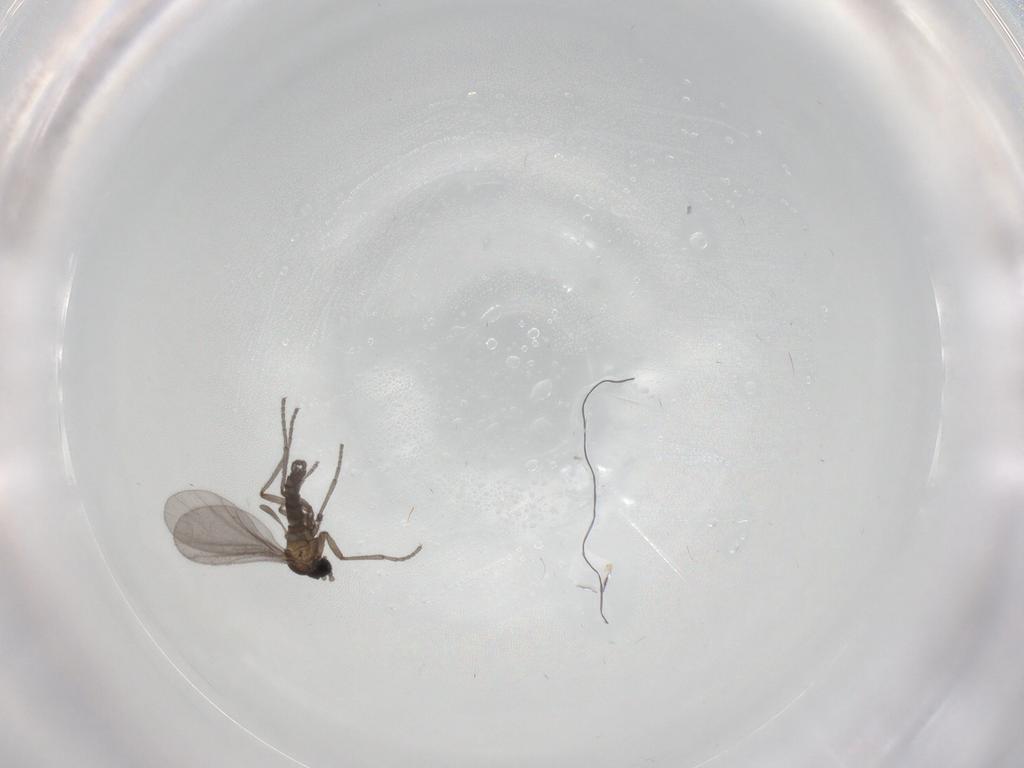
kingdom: Animalia
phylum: Arthropoda
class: Insecta
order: Diptera
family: Sciaridae
